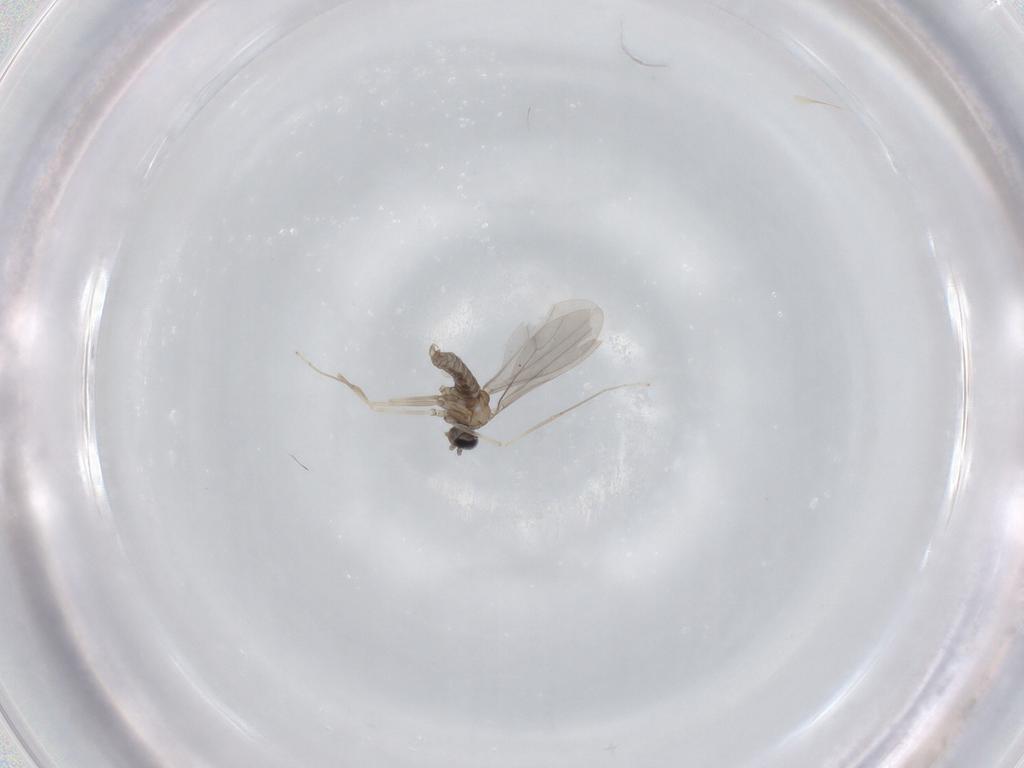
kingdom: Animalia
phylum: Arthropoda
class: Insecta
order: Diptera
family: Cecidomyiidae
